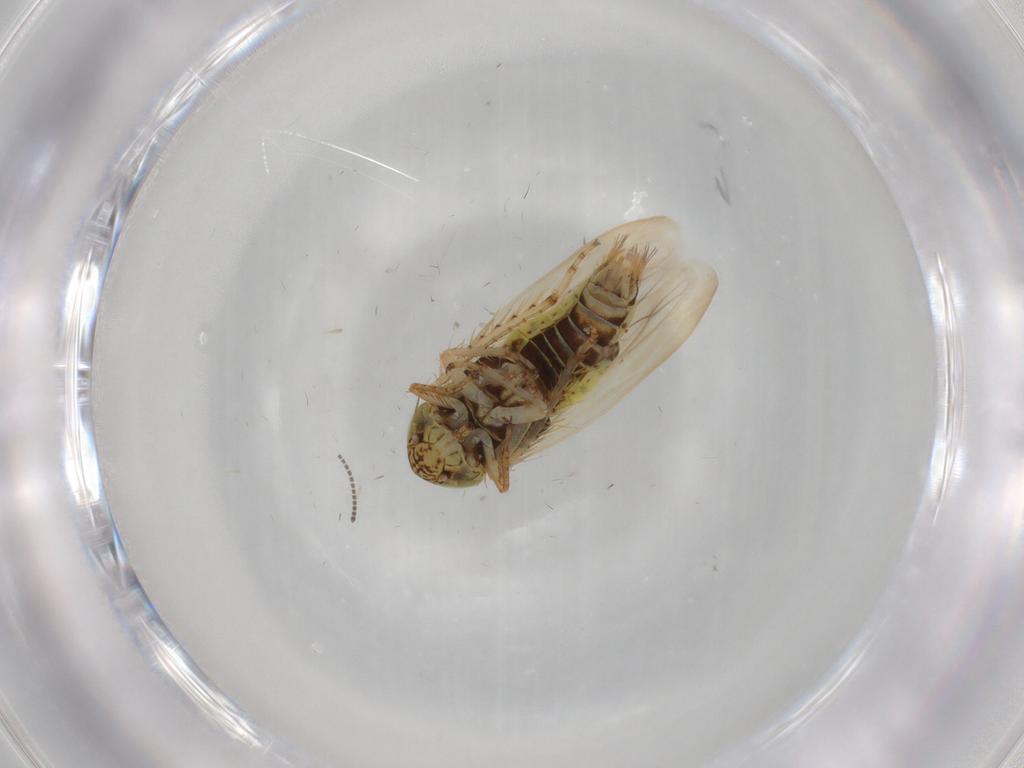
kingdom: Animalia
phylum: Arthropoda
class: Insecta
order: Hemiptera
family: Cicadellidae
